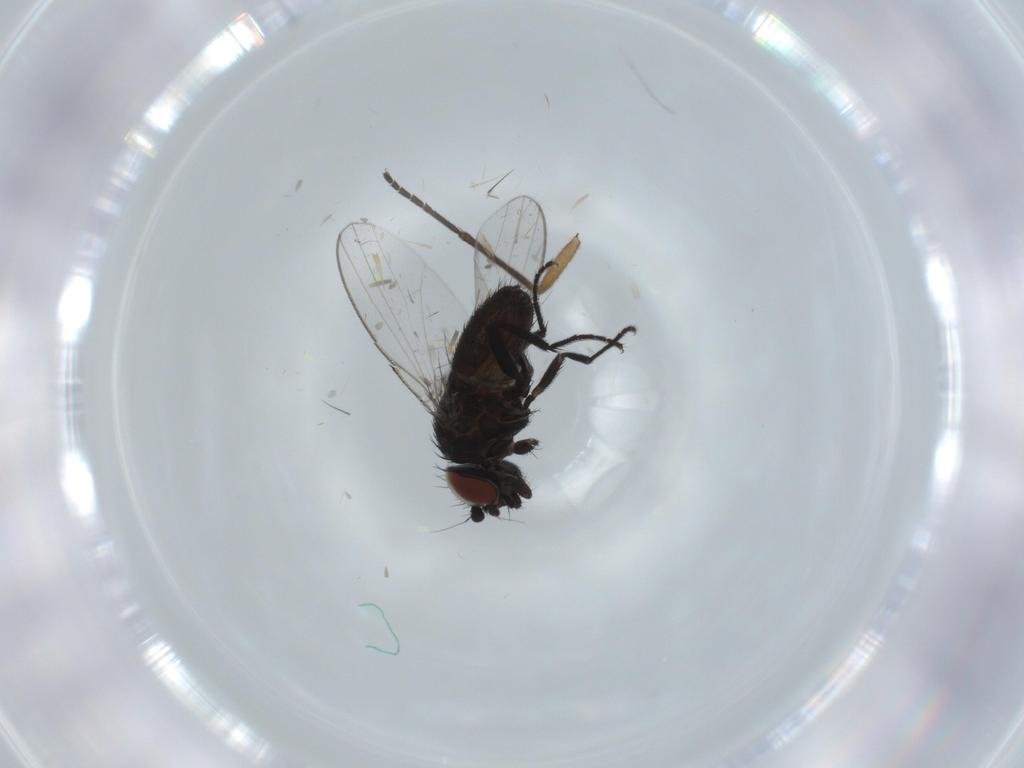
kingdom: Animalia
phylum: Arthropoda
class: Insecta
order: Diptera
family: Milichiidae
